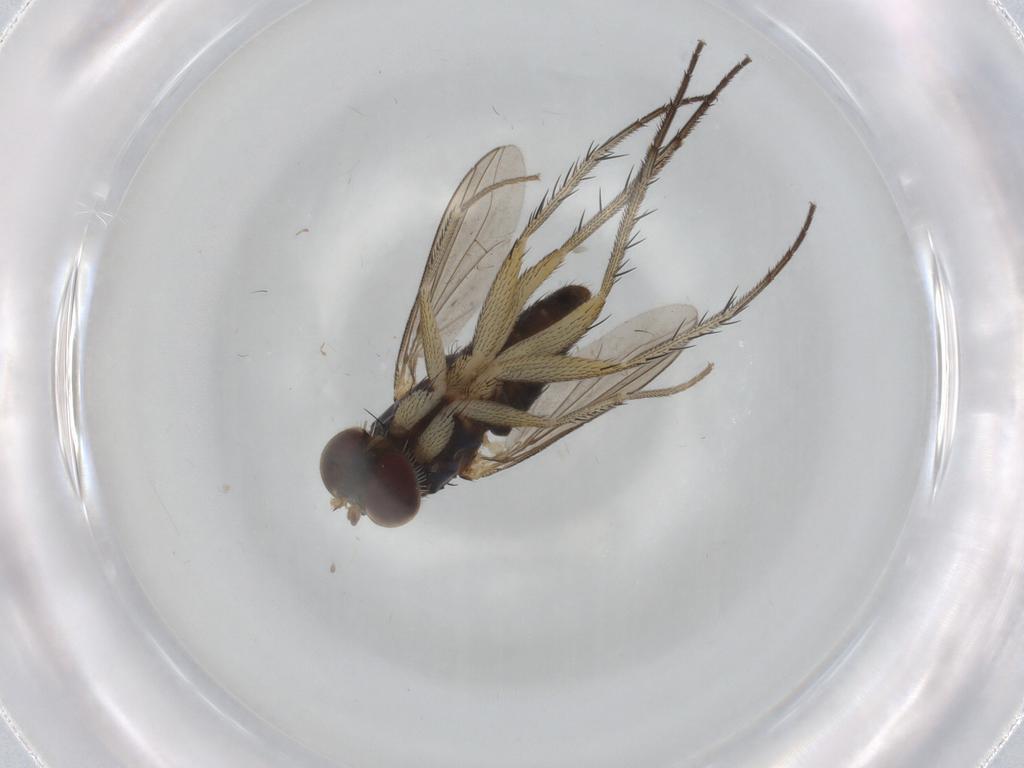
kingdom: Animalia
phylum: Arthropoda
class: Insecta
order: Diptera
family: Dolichopodidae
